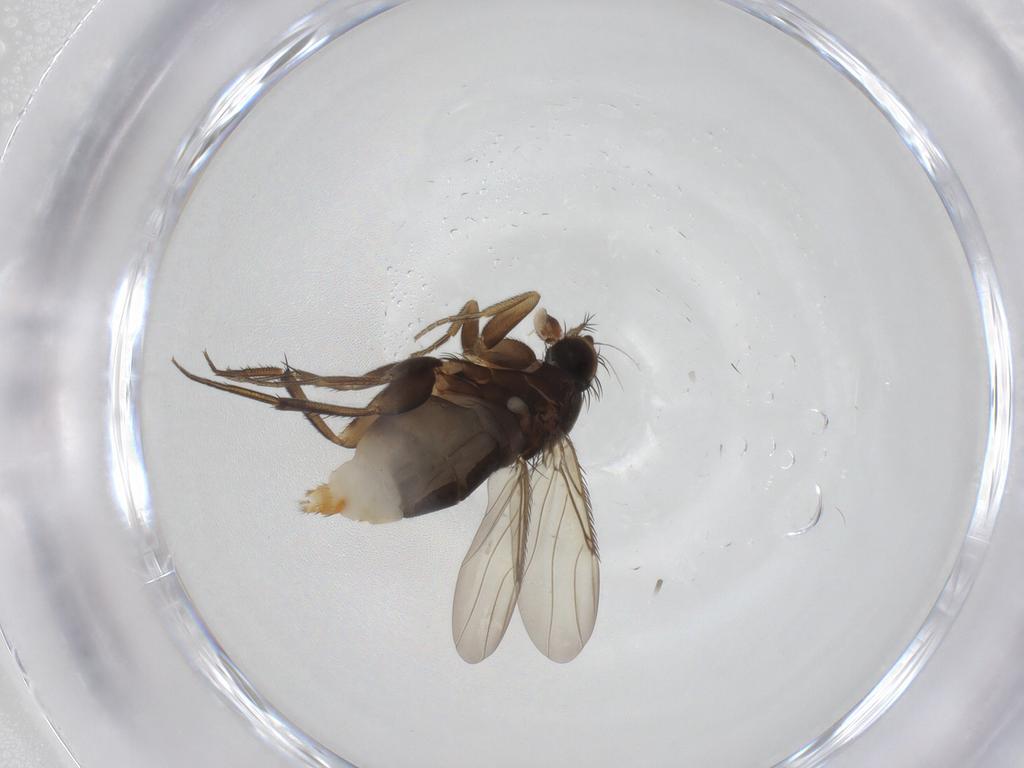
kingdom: Animalia
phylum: Arthropoda
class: Insecta
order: Diptera
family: Phoridae
